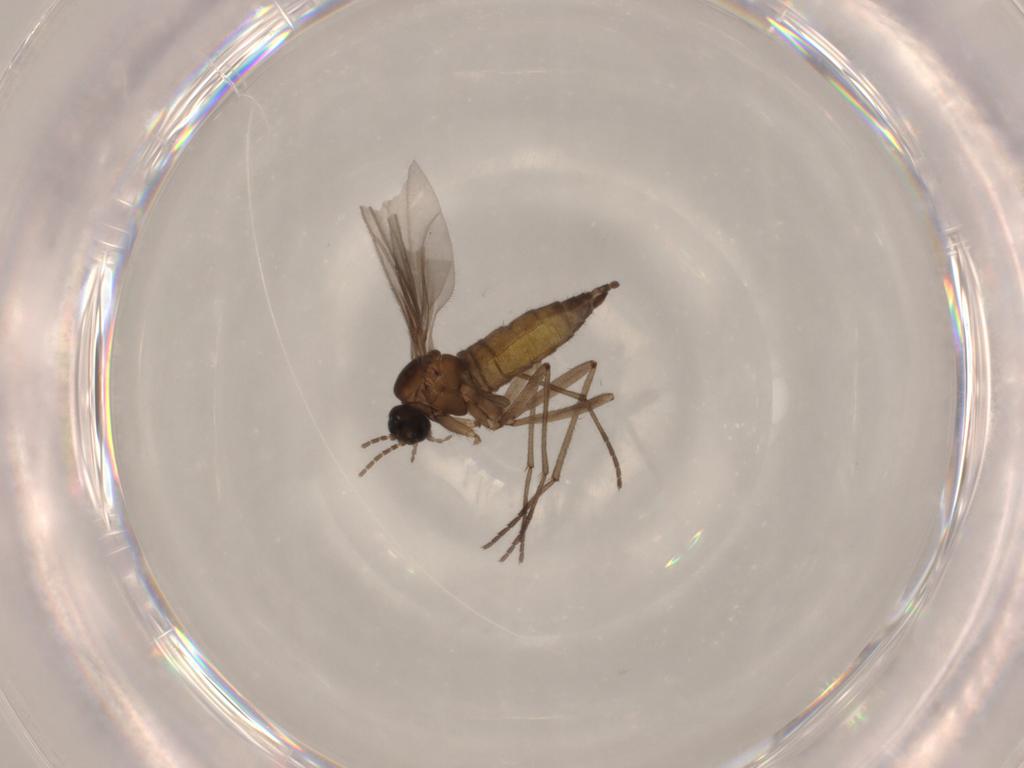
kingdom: Animalia
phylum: Arthropoda
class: Insecta
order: Diptera
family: Sciaridae
